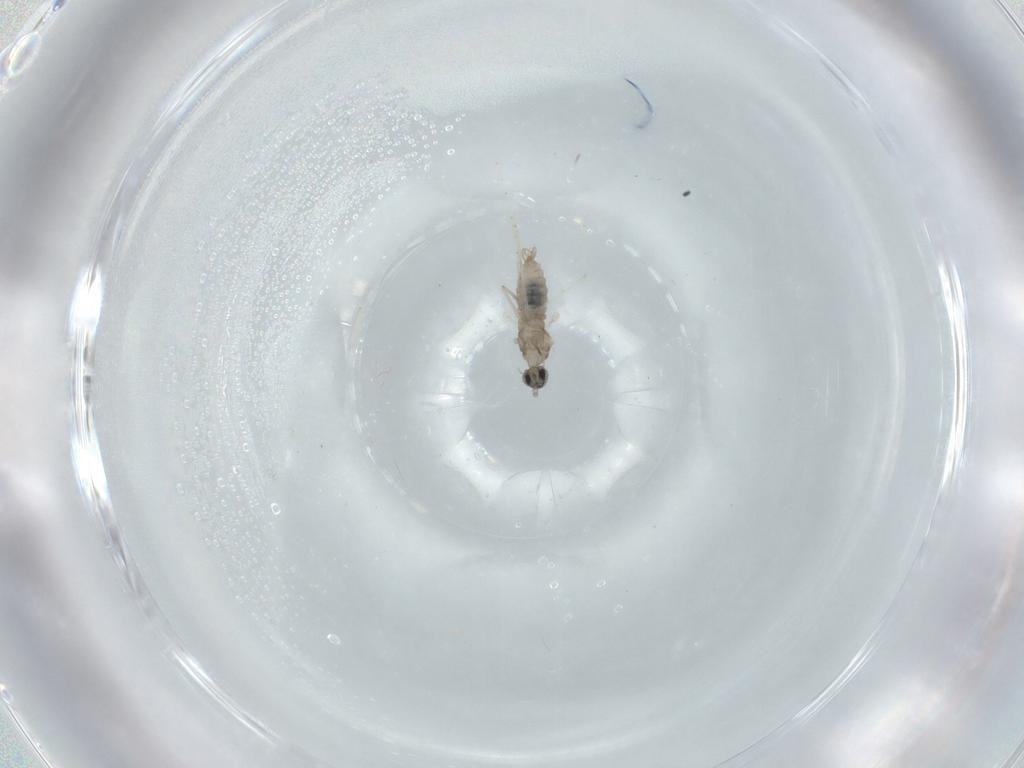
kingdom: Animalia
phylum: Arthropoda
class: Insecta
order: Diptera
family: Cecidomyiidae
